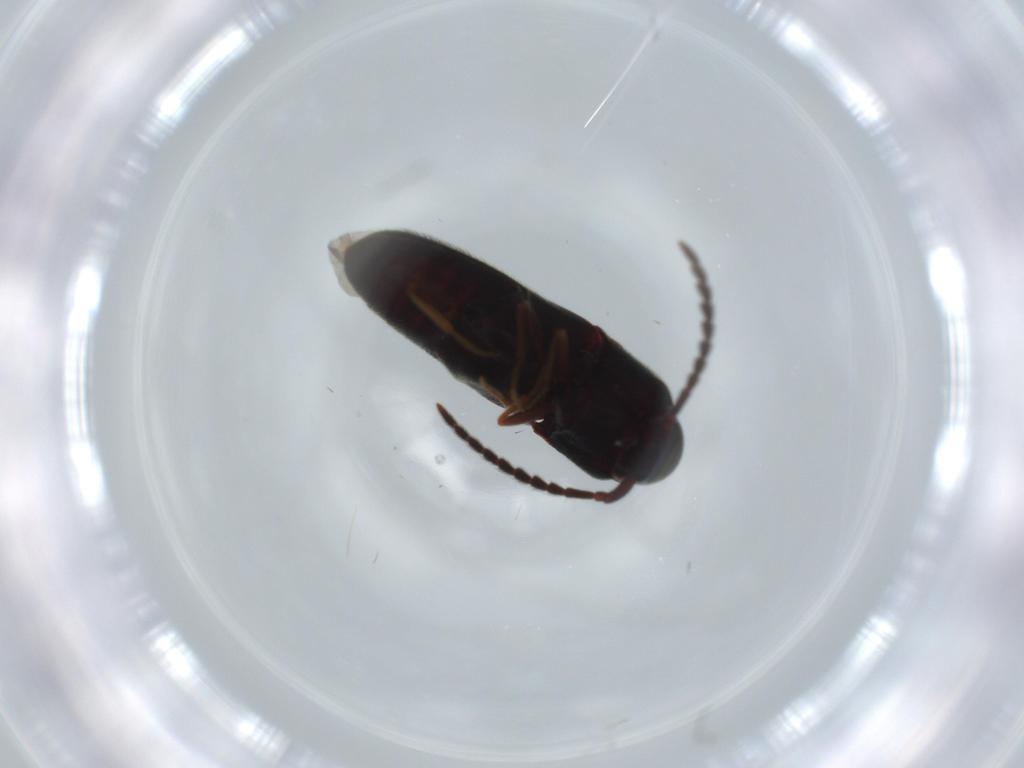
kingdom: Animalia
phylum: Arthropoda
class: Insecta
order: Coleoptera
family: Eucnemidae
